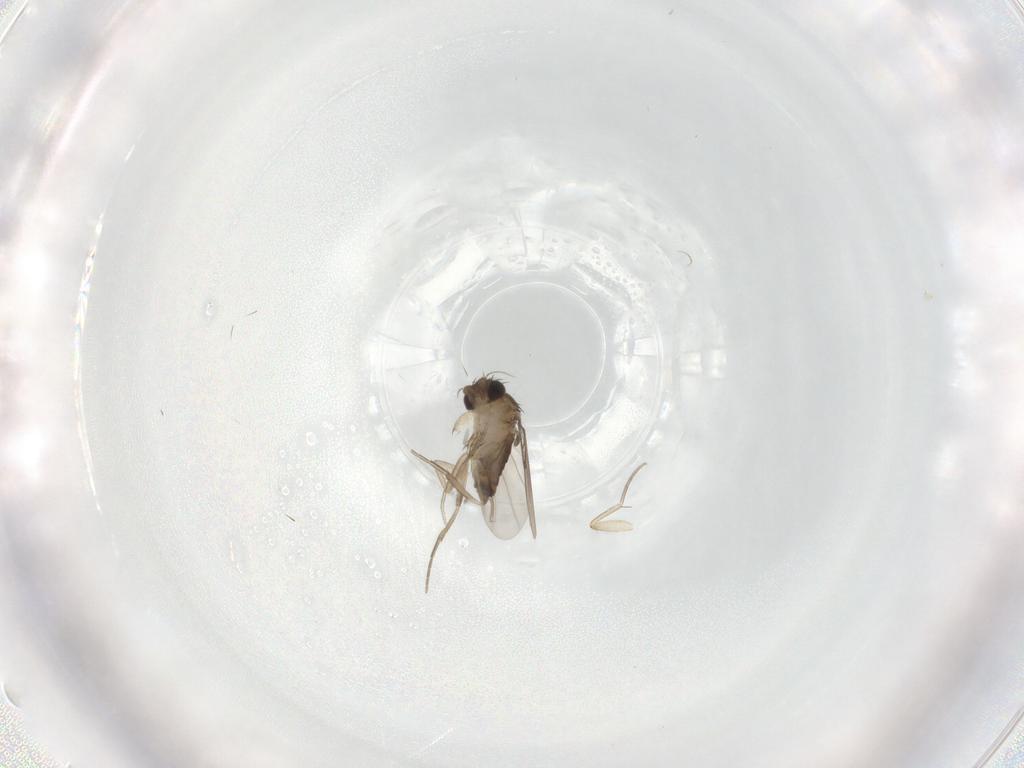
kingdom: Animalia
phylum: Arthropoda
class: Insecta
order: Diptera
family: Phoridae
